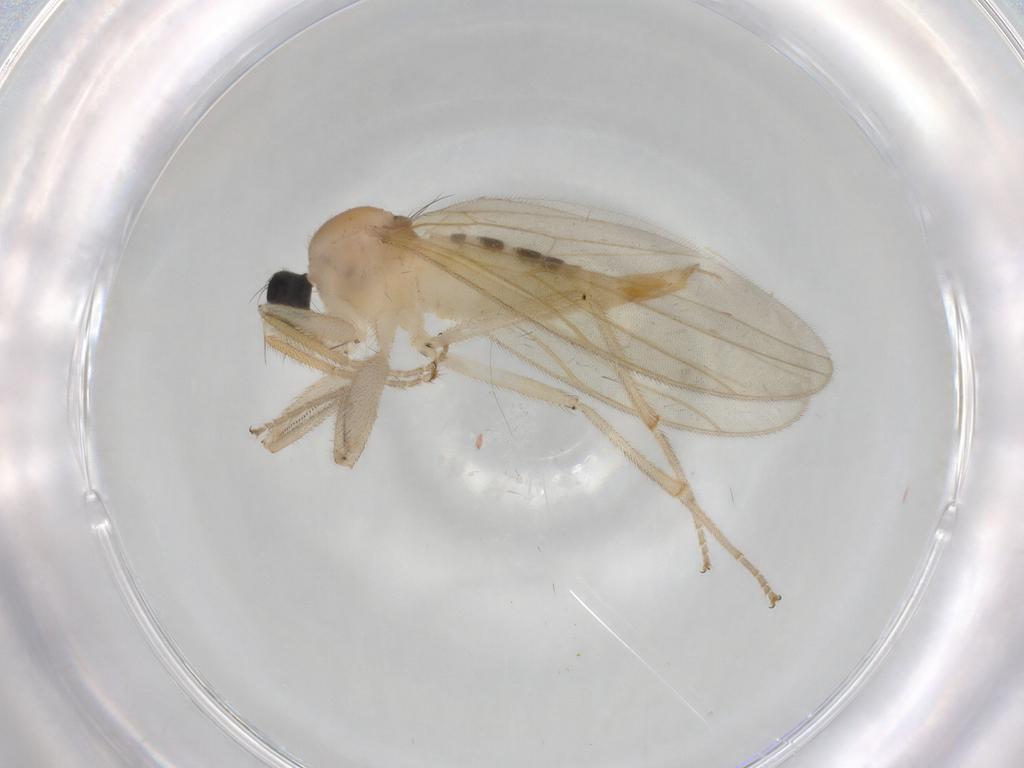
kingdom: Animalia
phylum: Arthropoda
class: Insecta
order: Diptera
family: Hybotidae
